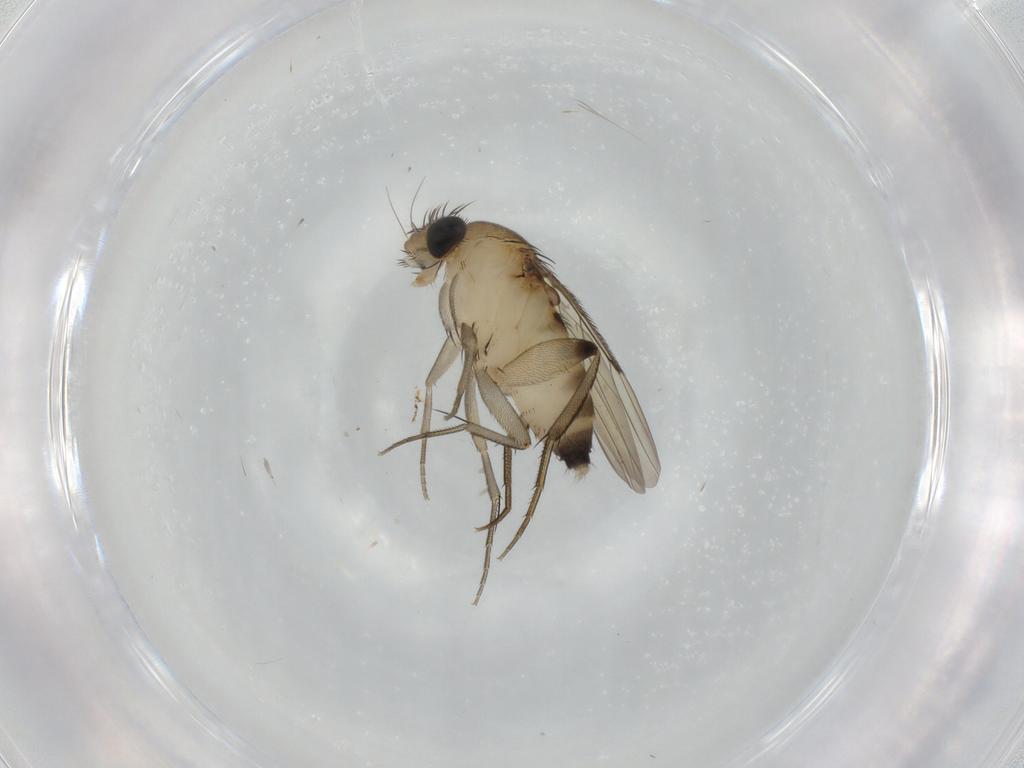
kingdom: Animalia
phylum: Arthropoda
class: Insecta
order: Diptera
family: Phoridae
